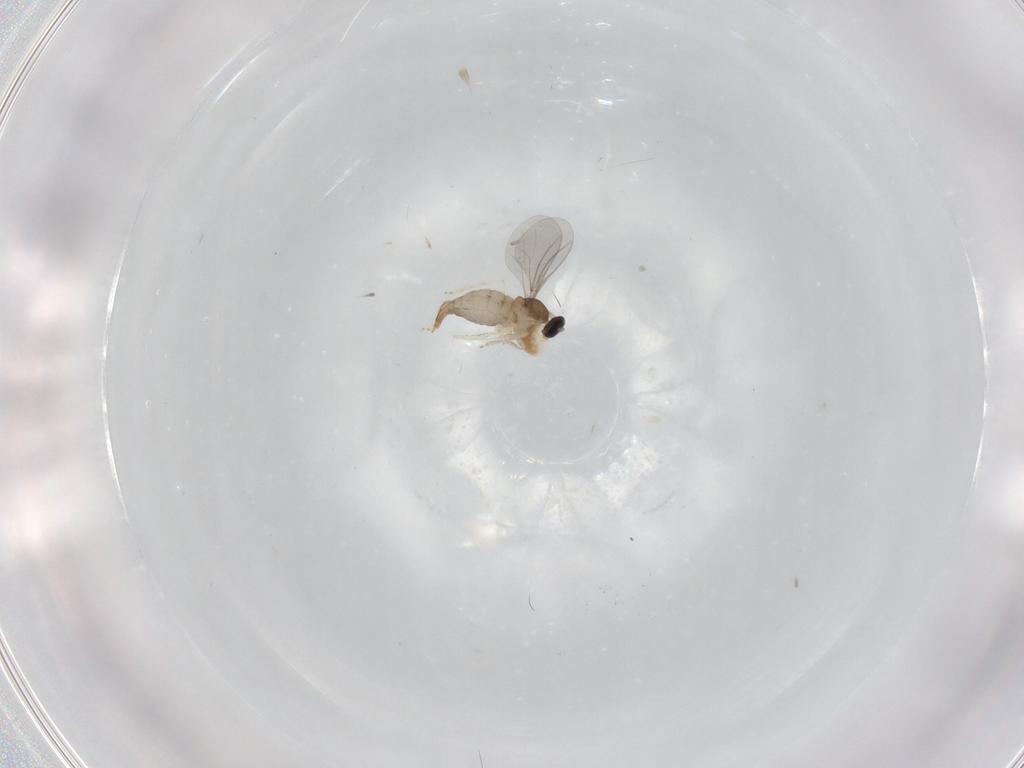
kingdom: Animalia
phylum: Arthropoda
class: Insecta
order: Diptera
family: Cecidomyiidae
